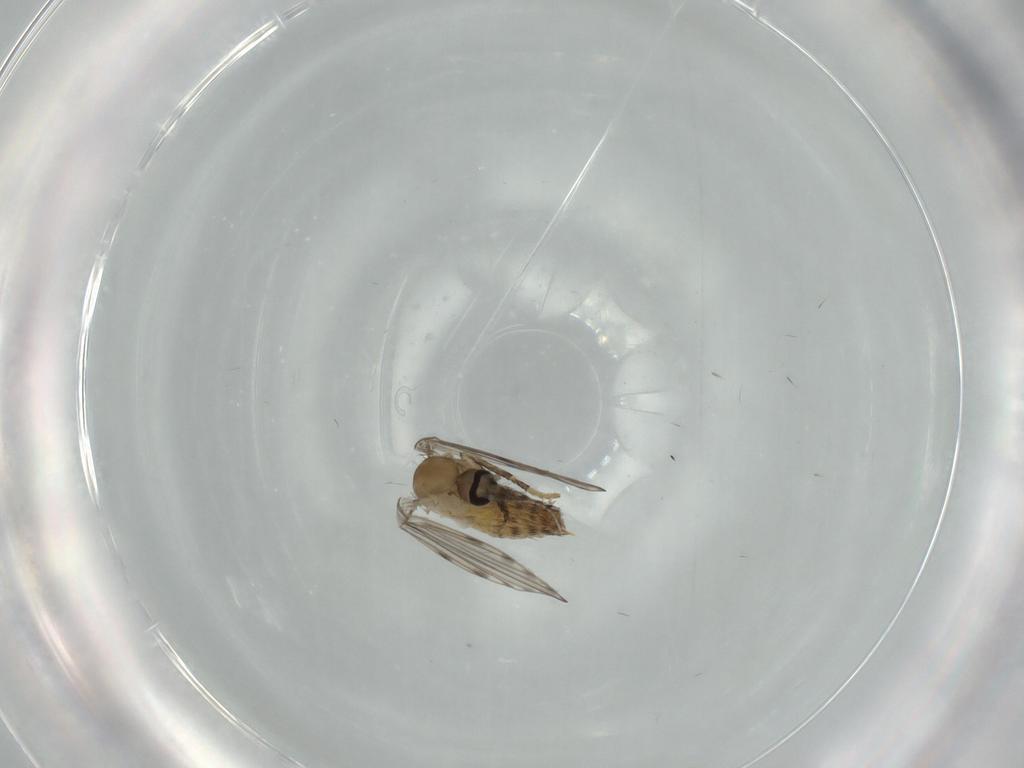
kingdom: Animalia
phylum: Arthropoda
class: Insecta
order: Diptera
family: Psychodidae
